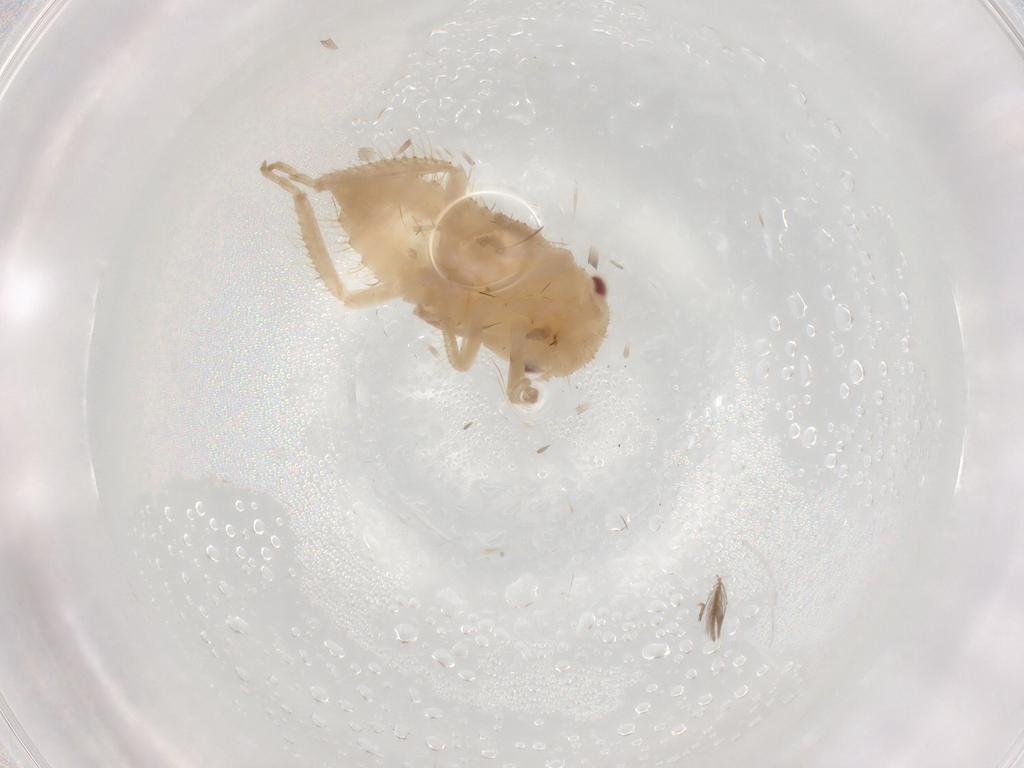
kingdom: Animalia
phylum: Arthropoda
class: Insecta
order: Hemiptera
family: Cicadellidae
